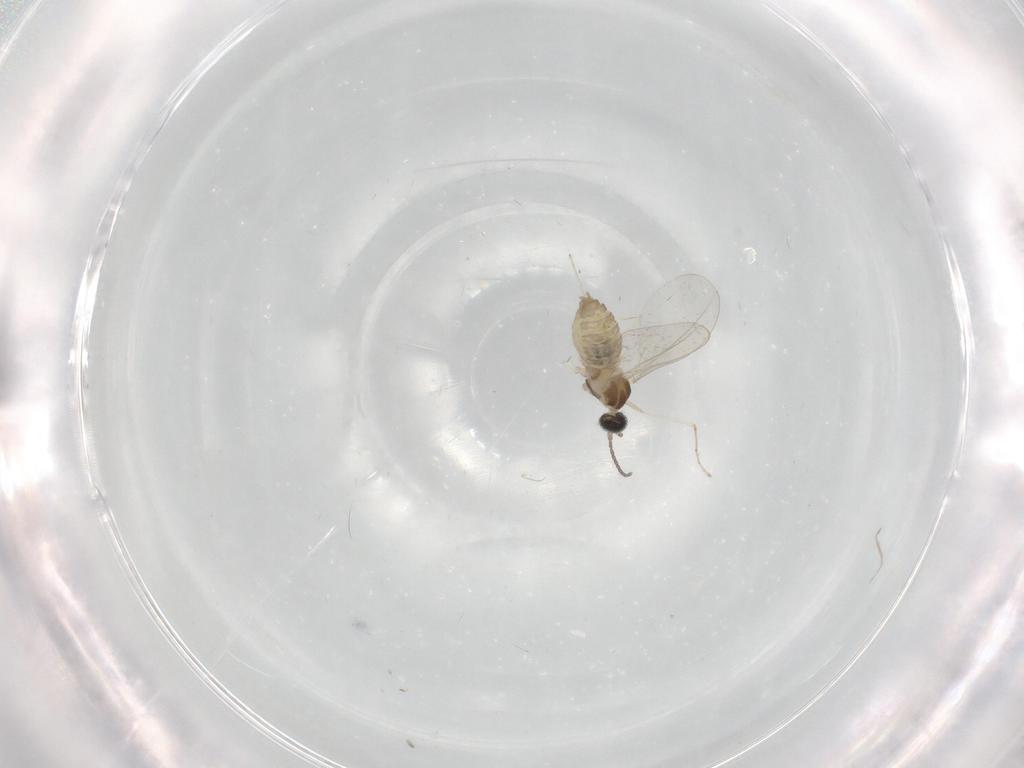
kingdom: Animalia
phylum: Arthropoda
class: Insecta
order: Diptera
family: Cecidomyiidae
